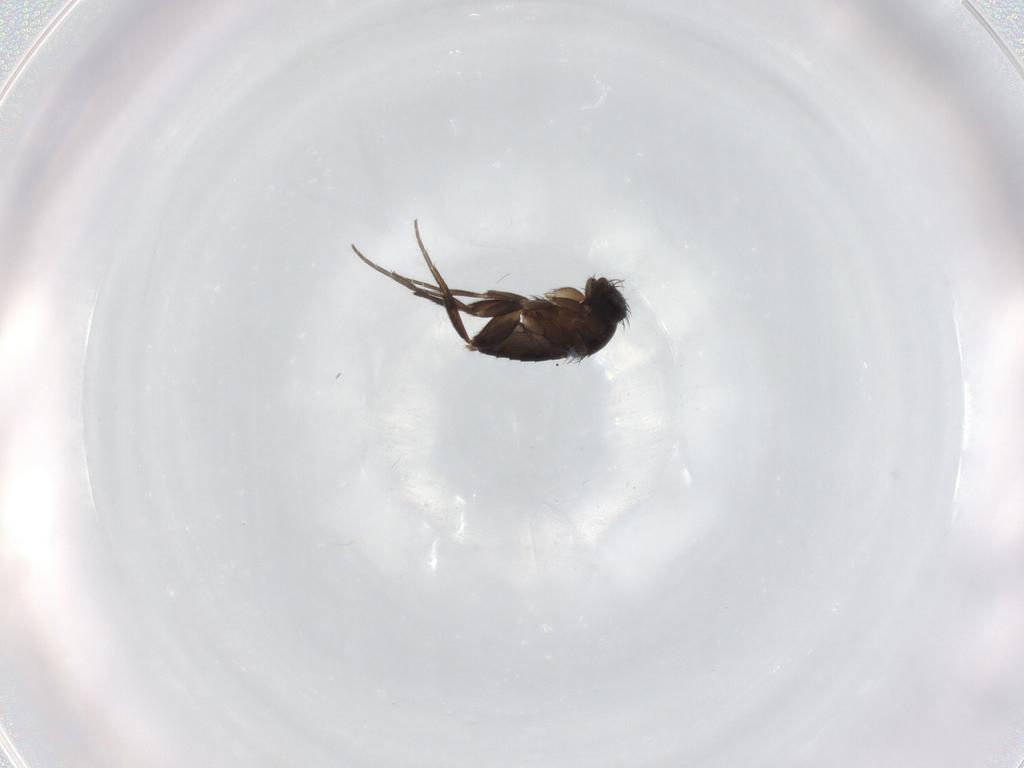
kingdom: Animalia
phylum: Arthropoda
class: Insecta
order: Diptera
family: Phoridae
